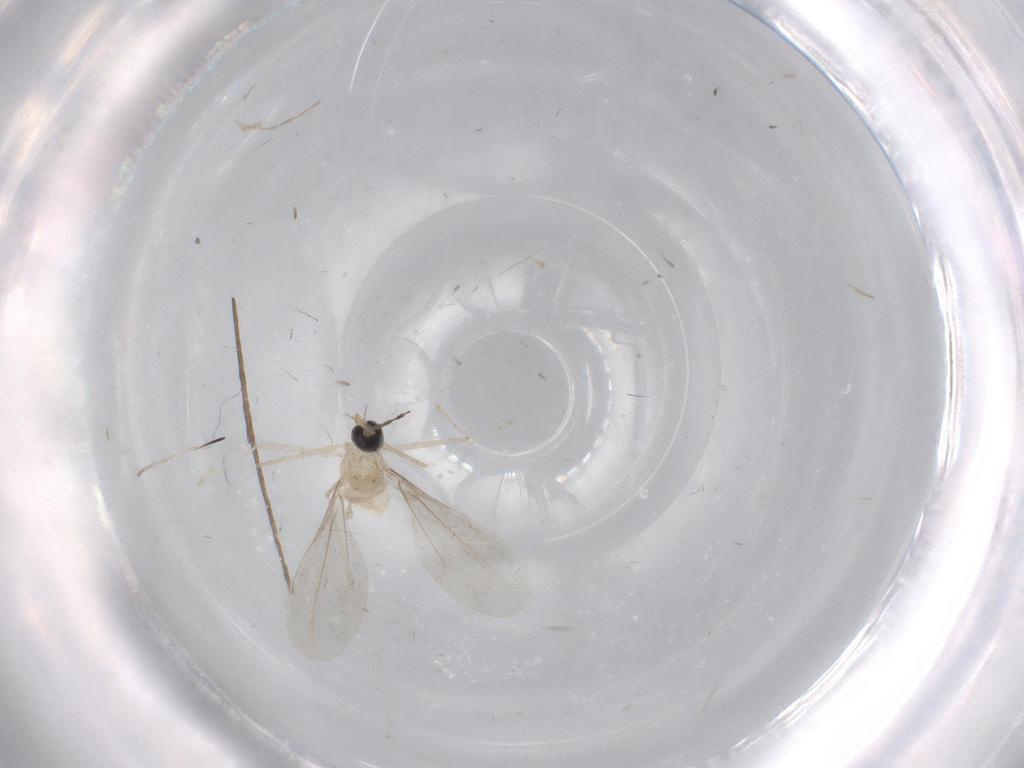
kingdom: Animalia
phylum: Arthropoda
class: Insecta
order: Diptera
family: Cecidomyiidae
